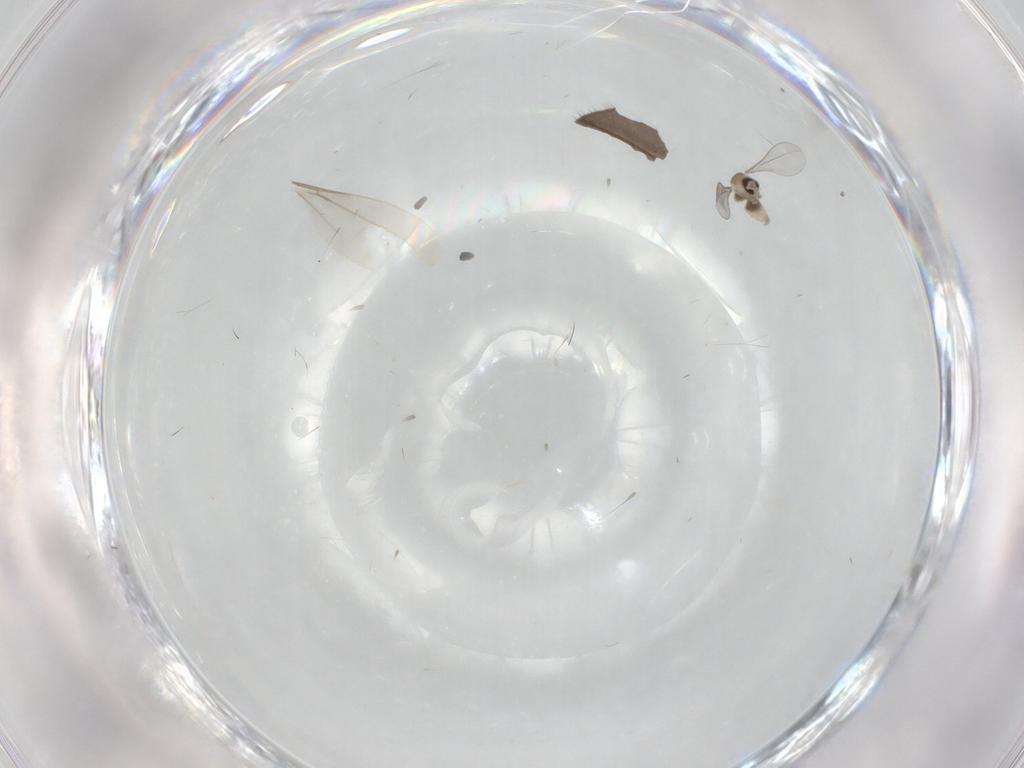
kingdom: Animalia
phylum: Arthropoda
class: Insecta
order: Diptera
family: Cecidomyiidae
